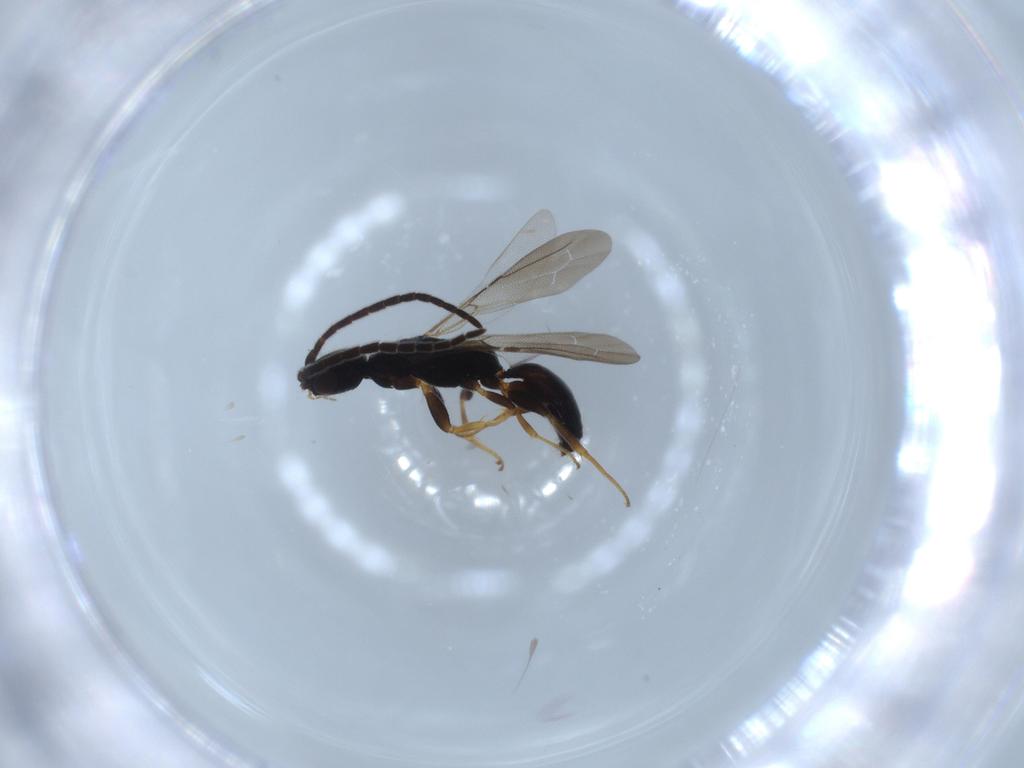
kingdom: Animalia
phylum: Arthropoda
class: Insecta
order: Hymenoptera
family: Bethylidae
